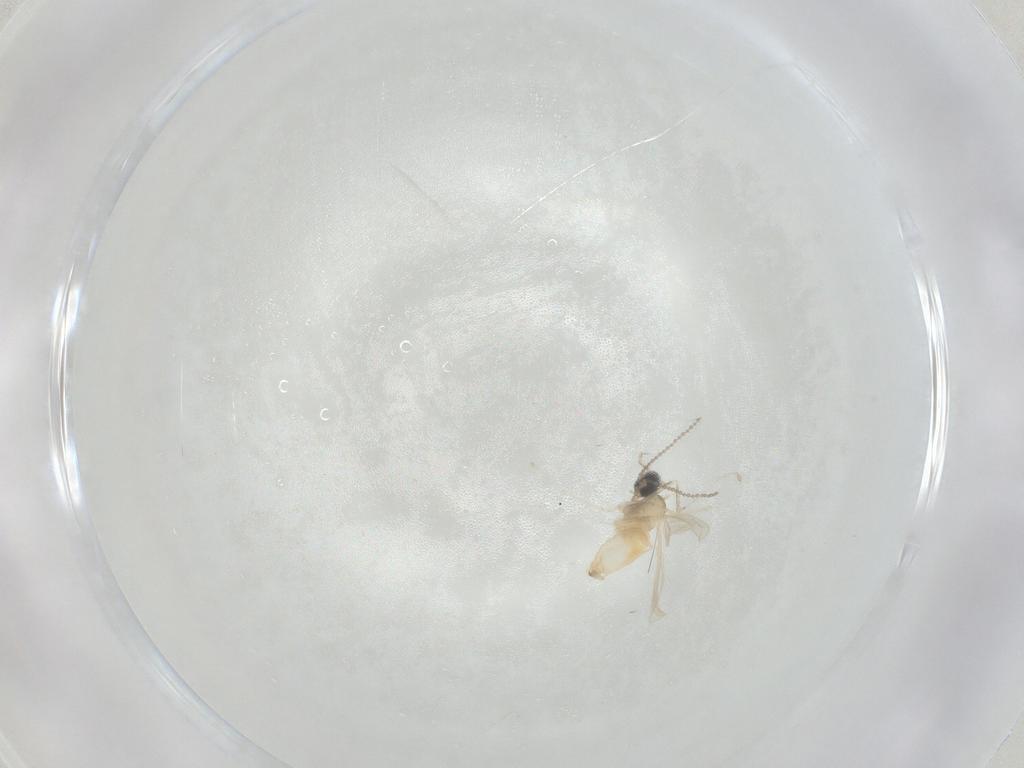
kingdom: Animalia
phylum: Arthropoda
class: Insecta
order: Diptera
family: Cecidomyiidae
